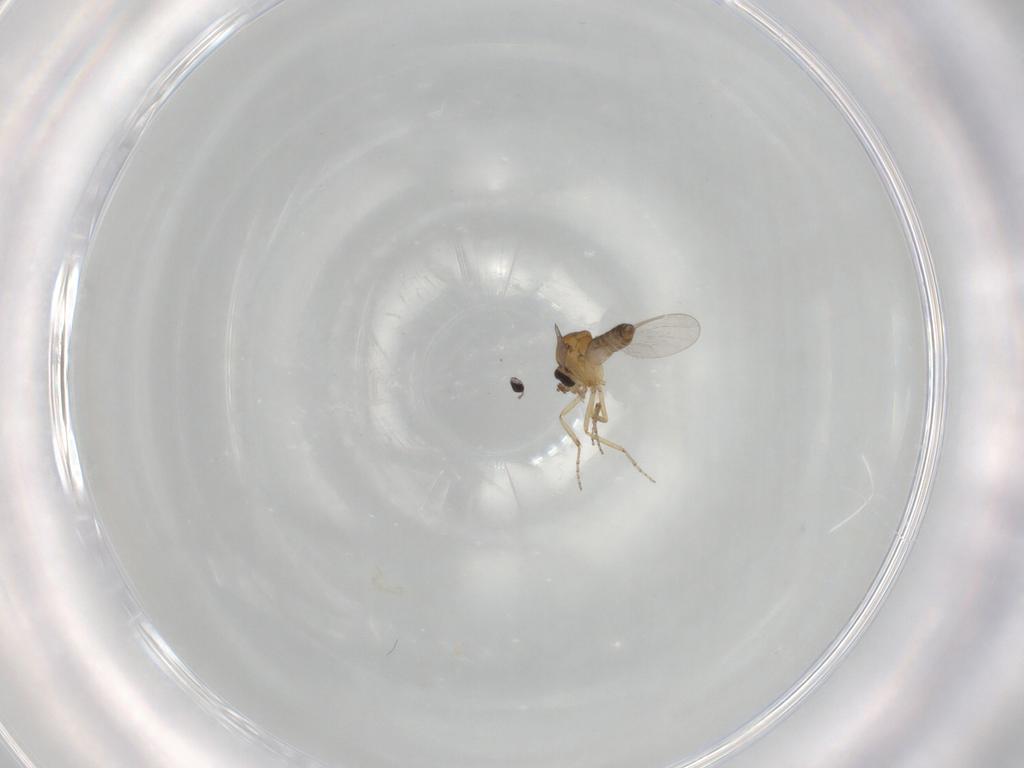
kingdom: Animalia
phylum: Arthropoda
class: Insecta
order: Diptera
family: Ceratopogonidae
